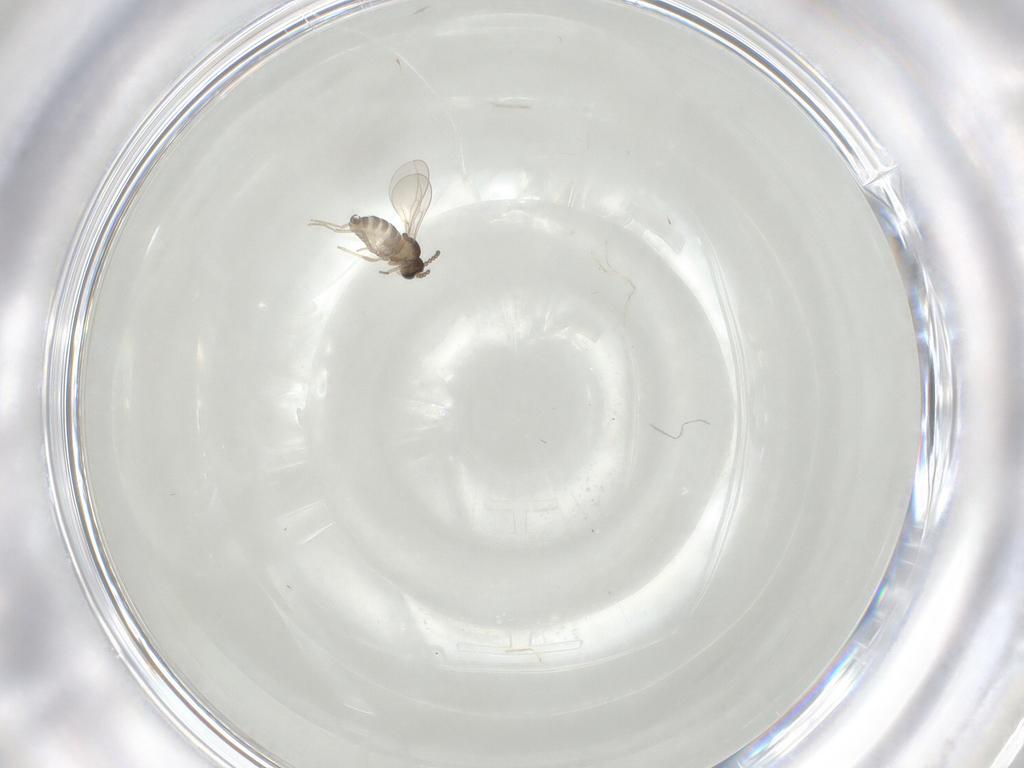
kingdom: Animalia
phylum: Arthropoda
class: Insecta
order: Diptera
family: Cecidomyiidae
